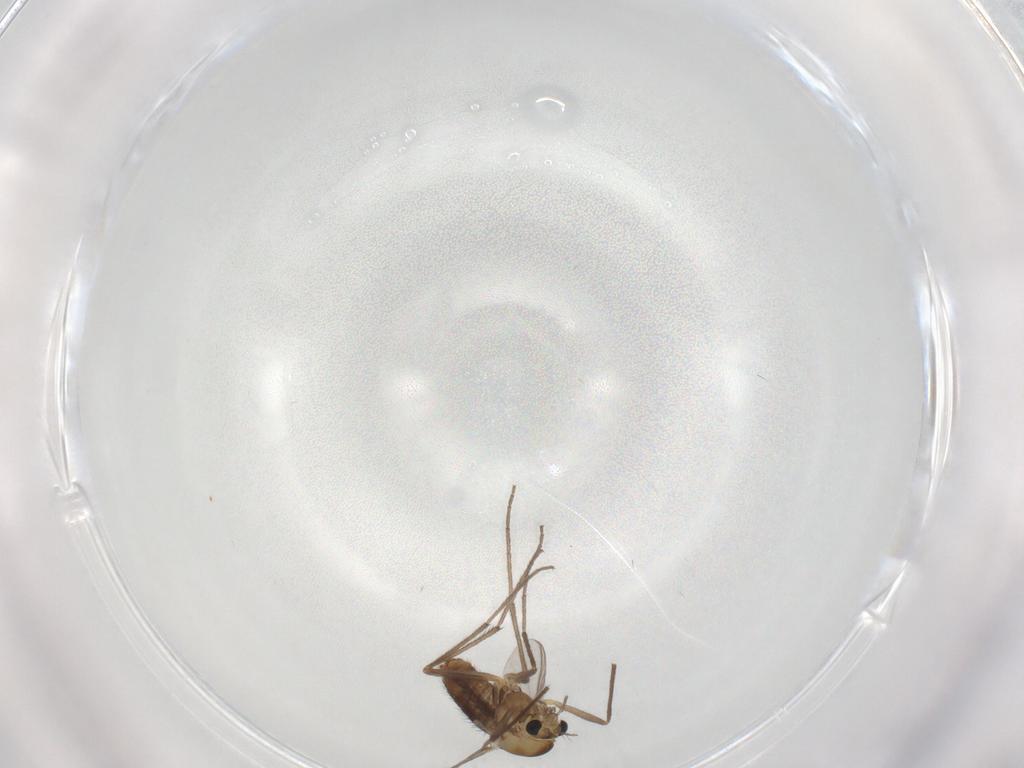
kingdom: Animalia
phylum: Arthropoda
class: Insecta
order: Diptera
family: Chironomidae
